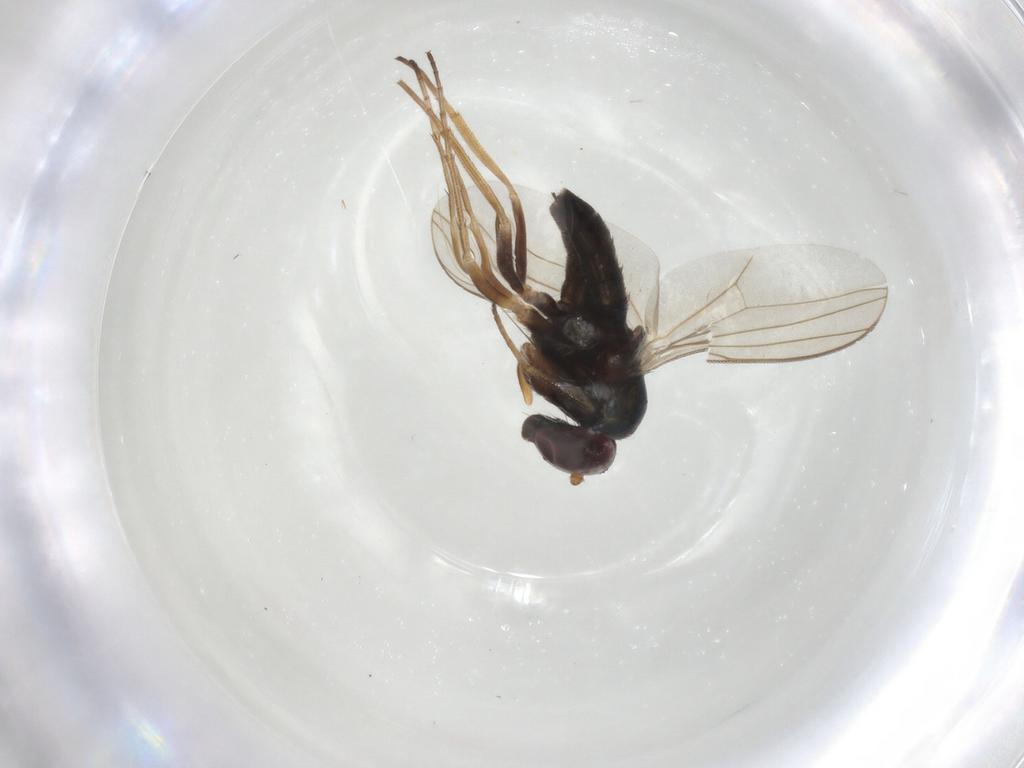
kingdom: Animalia
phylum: Arthropoda
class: Insecta
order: Diptera
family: Dolichopodidae
